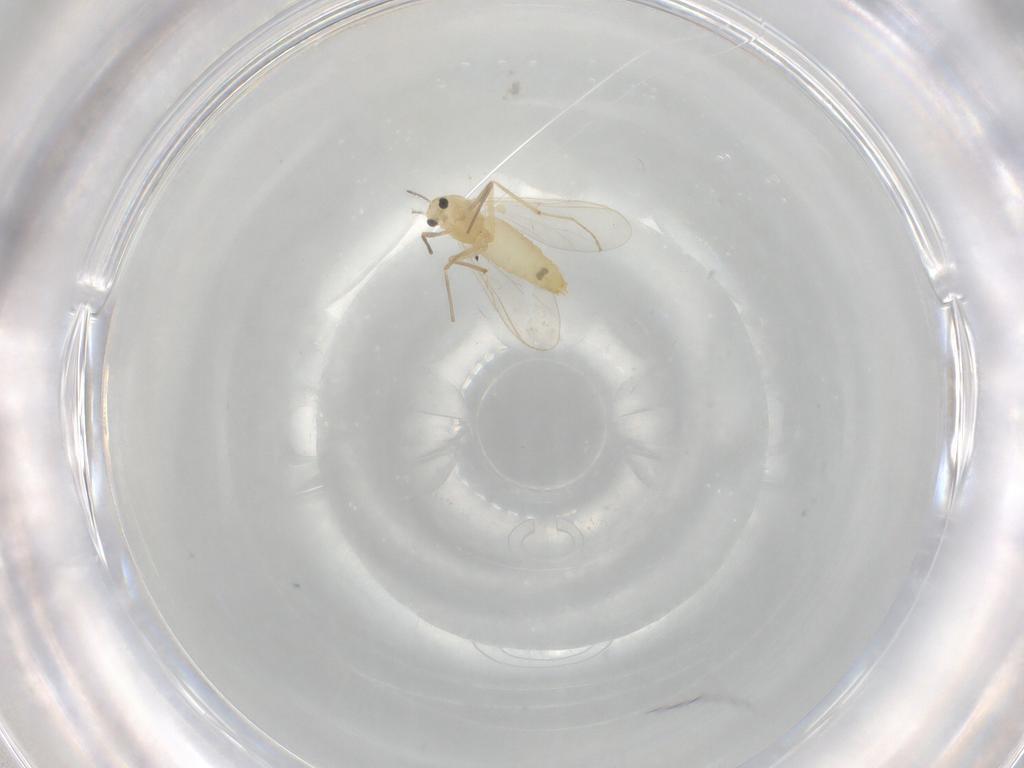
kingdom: Animalia
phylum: Arthropoda
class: Insecta
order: Diptera
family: Chironomidae
